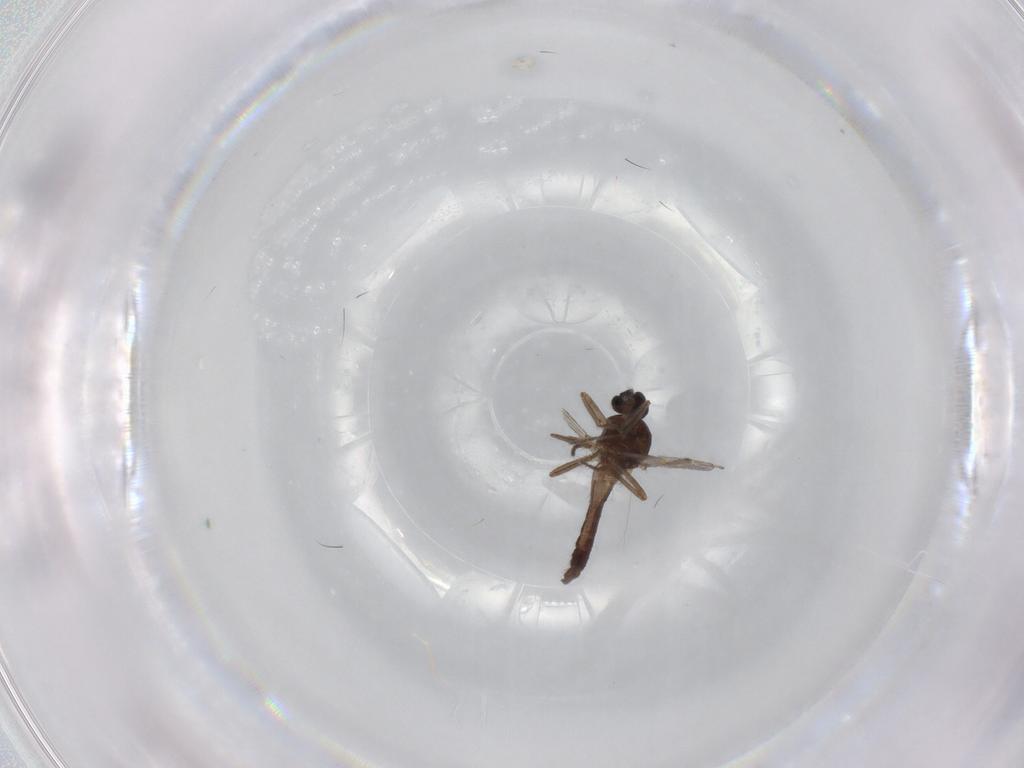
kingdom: Animalia
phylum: Arthropoda
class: Insecta
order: Diptera
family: Ceratopogonidae
